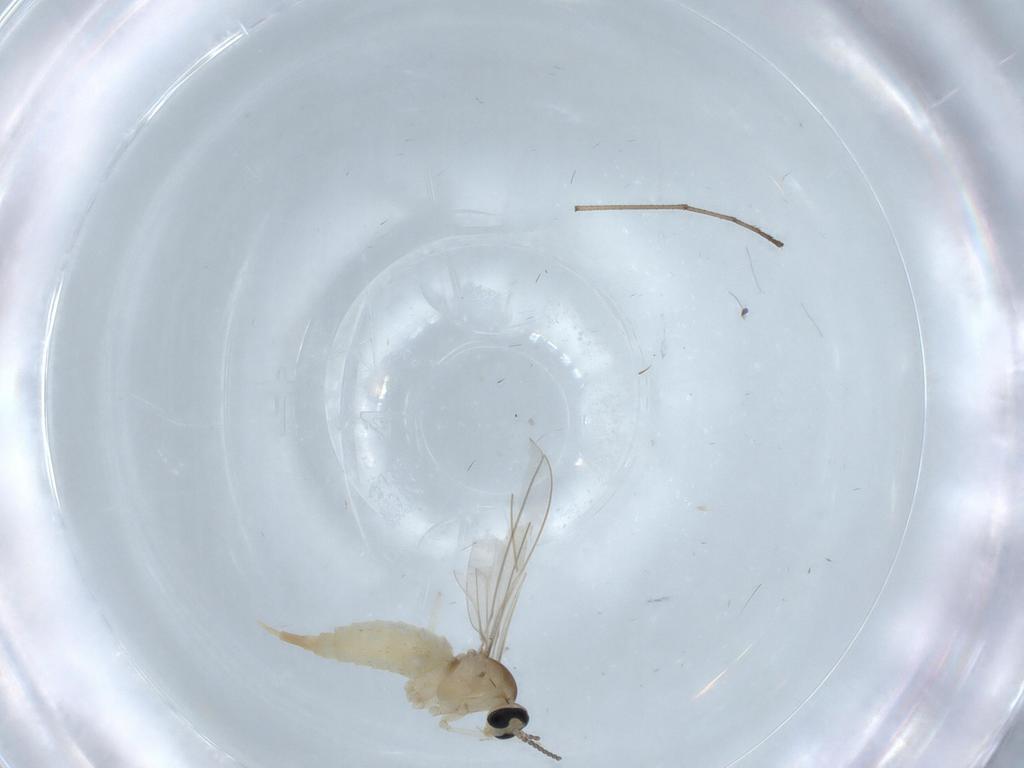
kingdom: Animalia
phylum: Arthropoda
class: Insecta
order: Diptera
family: Cecidomyiidae
